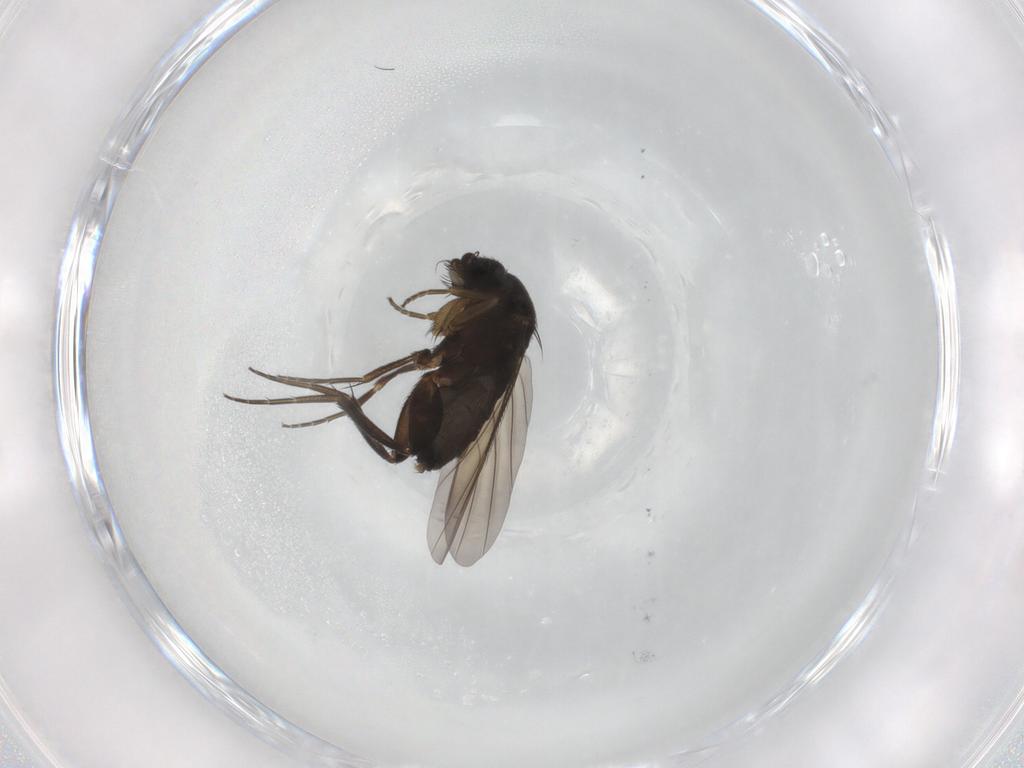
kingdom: Animalia
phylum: Arthropoda
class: Insecta
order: Diptera
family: Phoridae
